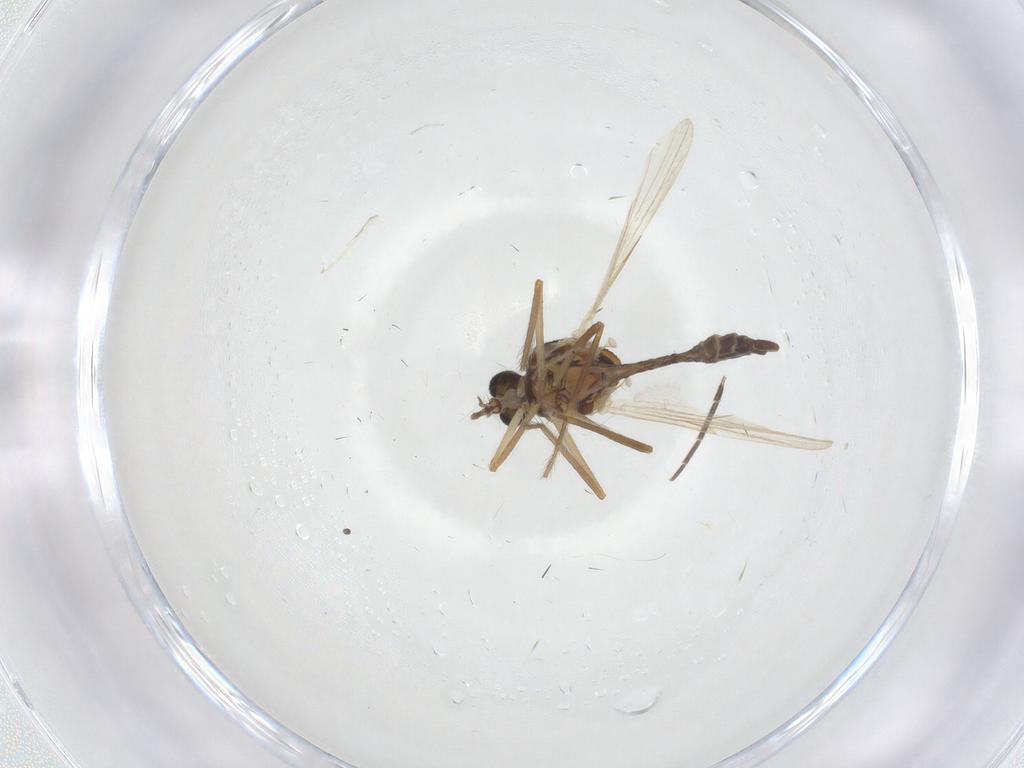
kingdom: Animalia
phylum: Arthropoda
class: Insecta
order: Diptera
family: Ceratopogonidae
